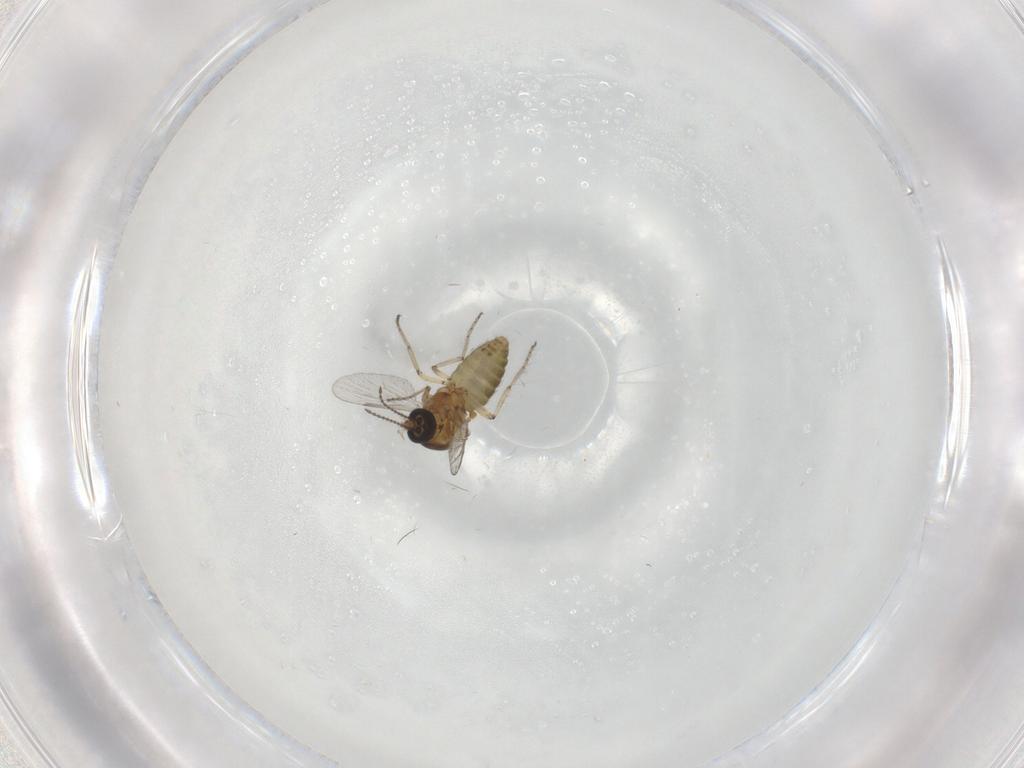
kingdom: Animalia
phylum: Arthropoda
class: Insecta
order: Diptera
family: Ceratopogonidae
